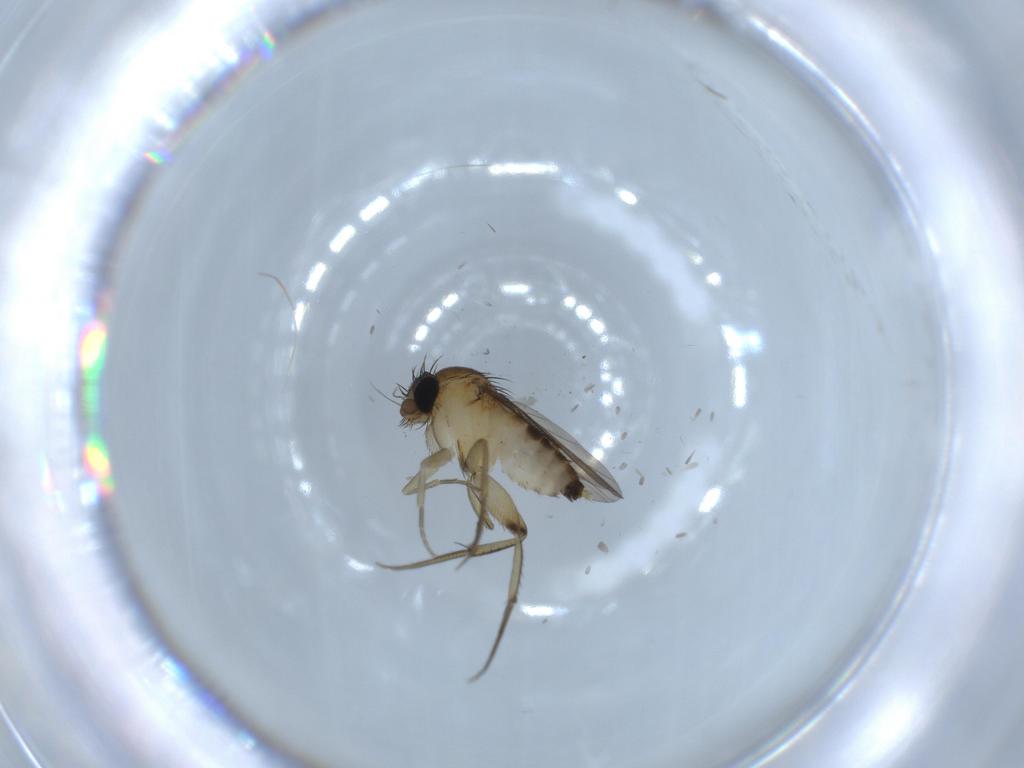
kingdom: Animalia
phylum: Arthropoda
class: Insecta
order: Diptera
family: Phoridae
